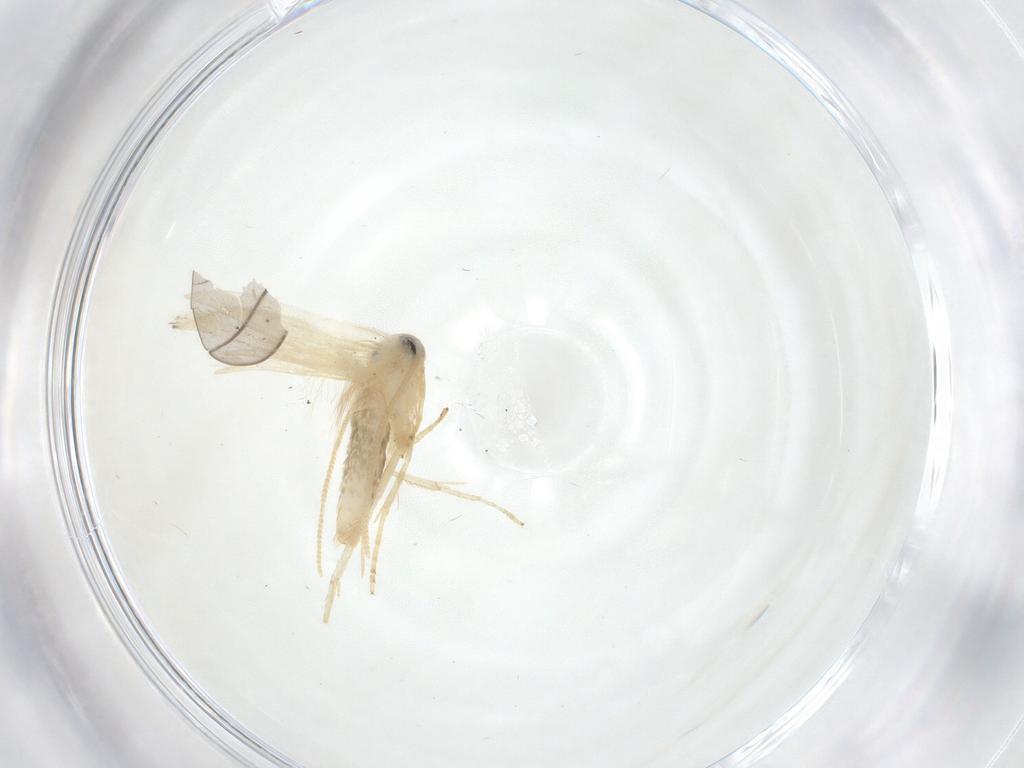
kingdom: Animalia
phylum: Arthropoda
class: Insecta
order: Lepidoptera
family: Opostegidae
